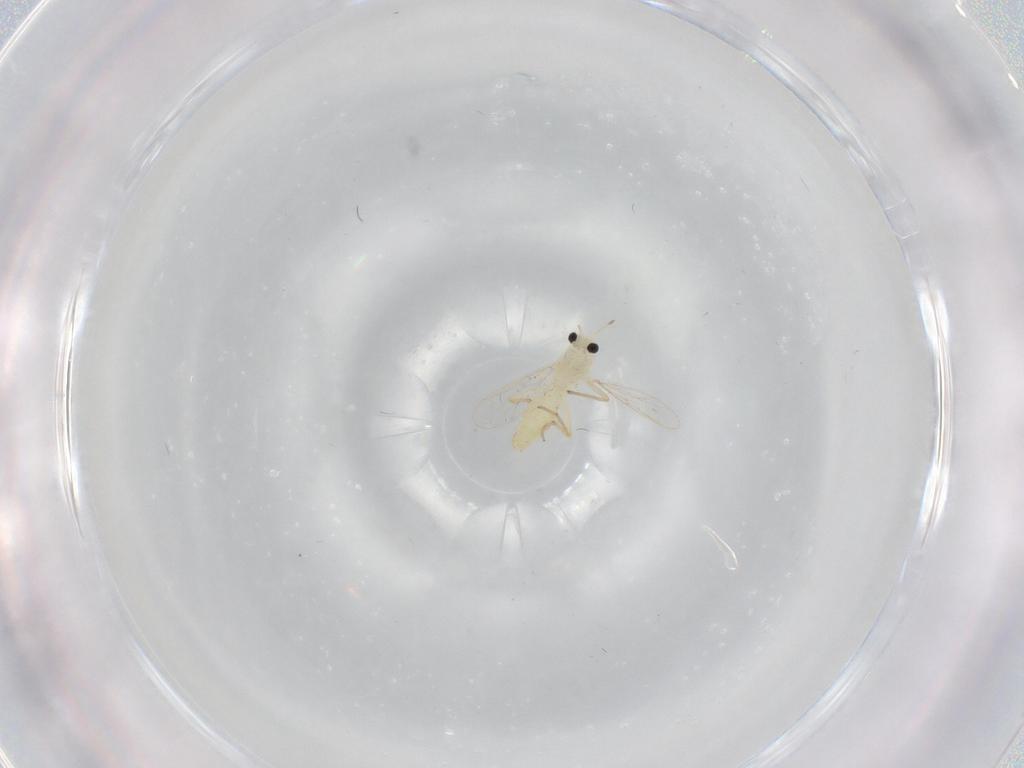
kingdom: Animalia
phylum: Arthropoda
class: Insecta
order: Diptera
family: Chironomidae
